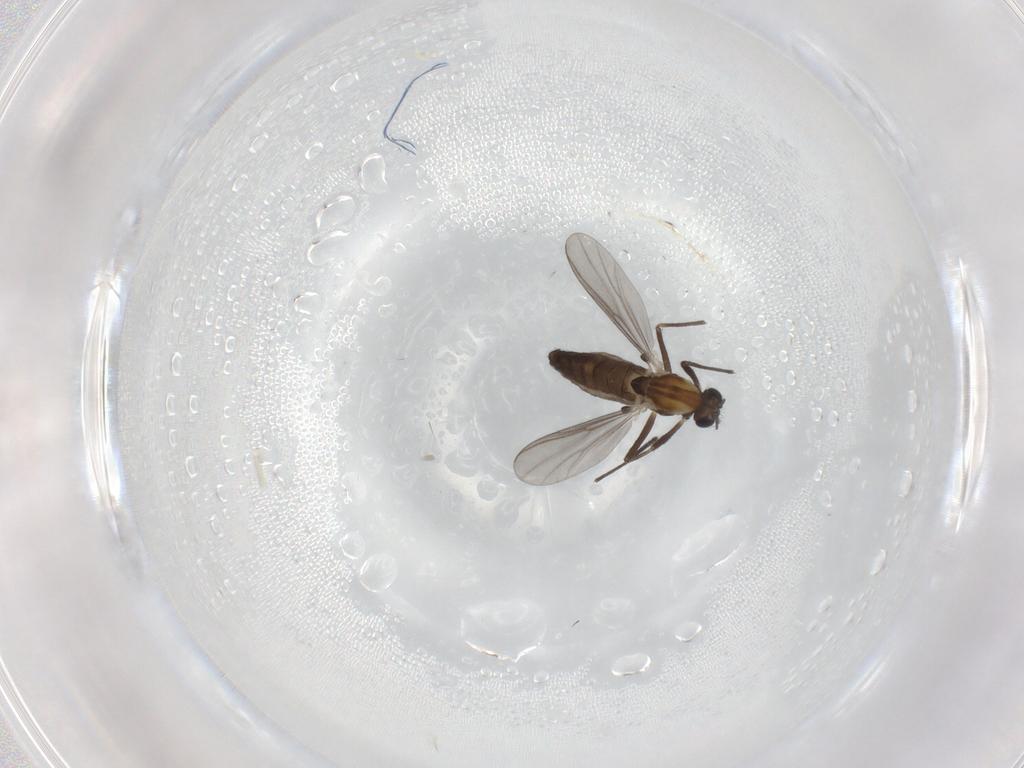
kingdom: Animalia
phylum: Arthropoda
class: Insecta
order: Diptera
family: Chironomidae
